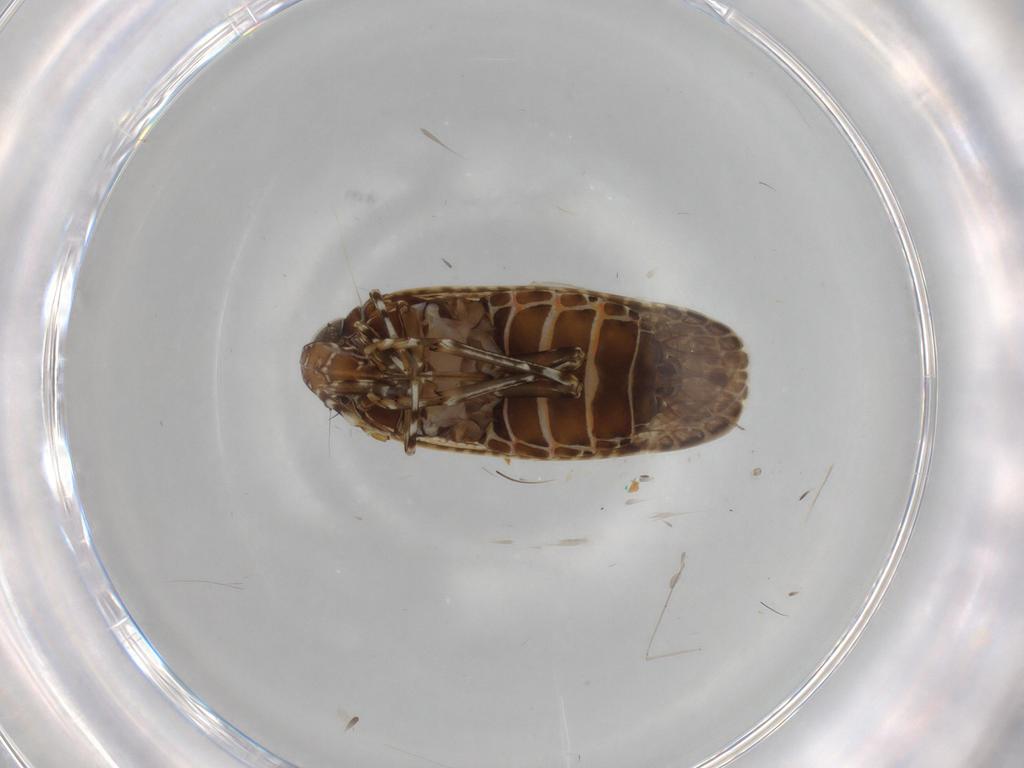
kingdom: Animalia
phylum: Arthropoda
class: Insecta
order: Hemiptera
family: Aleyrodidae
